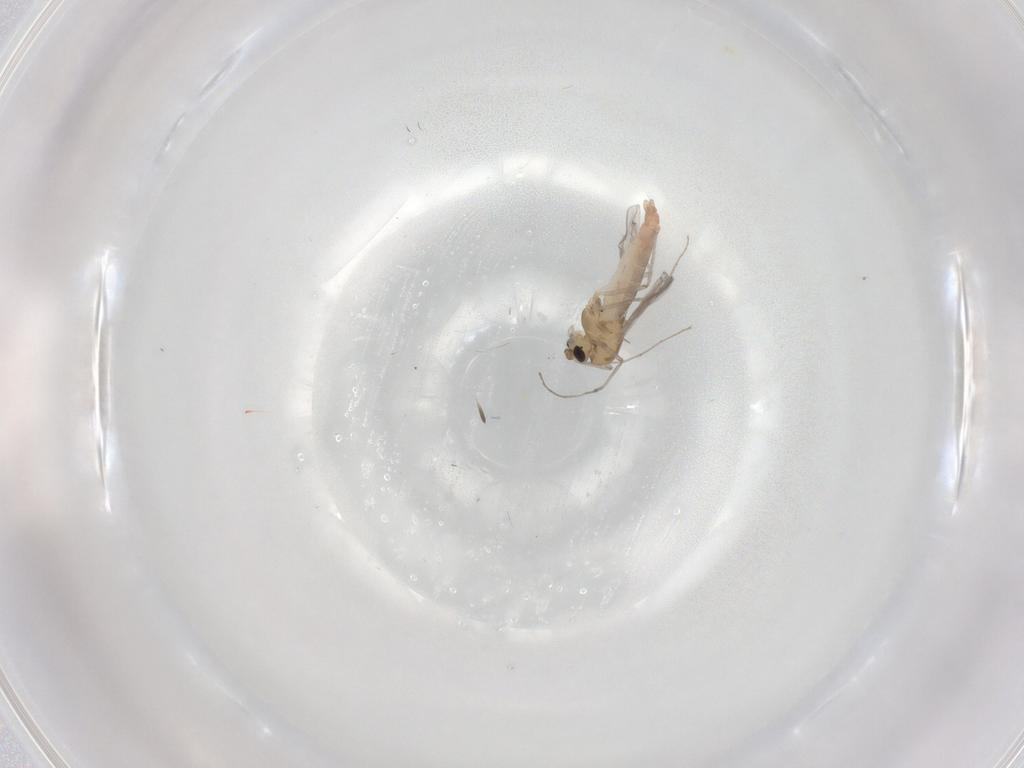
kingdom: Animalia
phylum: Arthropoda
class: Insecta
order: Diptera
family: Chironomidae
